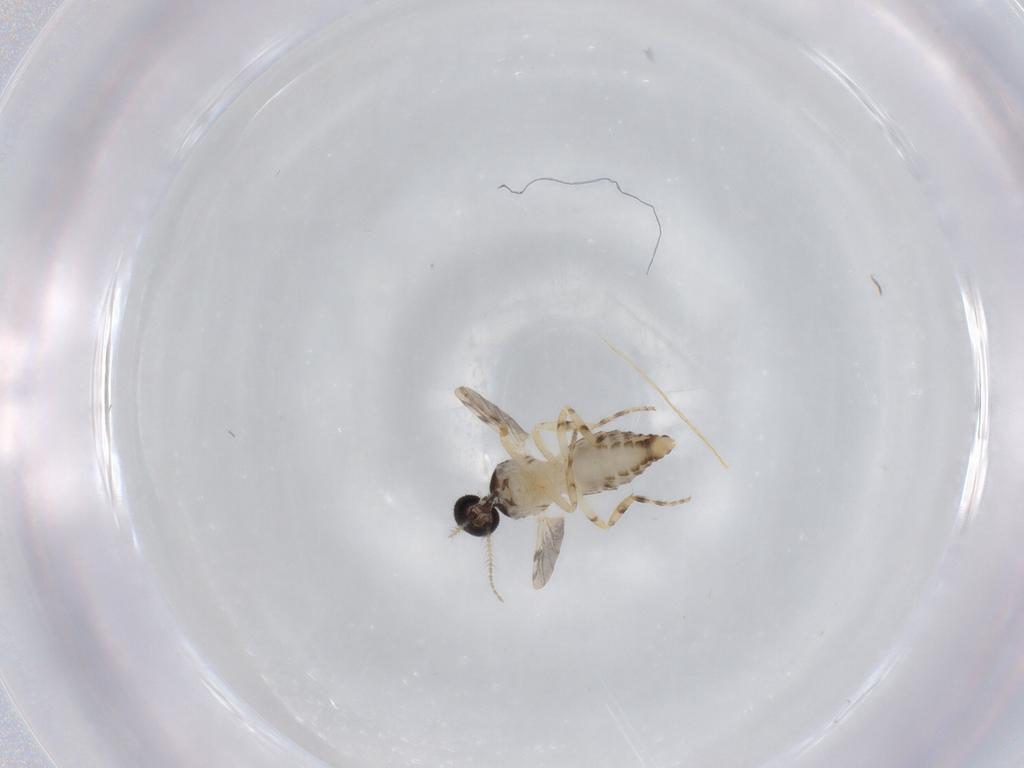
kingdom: Animalia
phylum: Arthropoda
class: Insecta
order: Diptera
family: Ceratopogonidae
